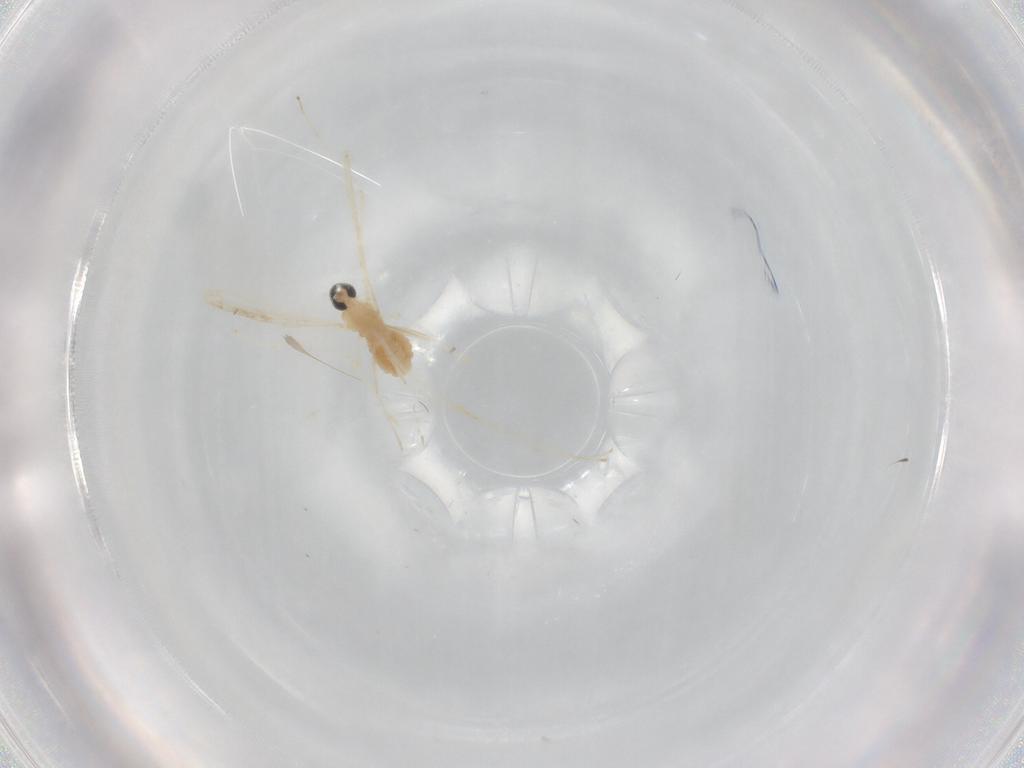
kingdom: Animalia
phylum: Arthropoda
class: Insecta
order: Diptera
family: Cecidomyiidae
